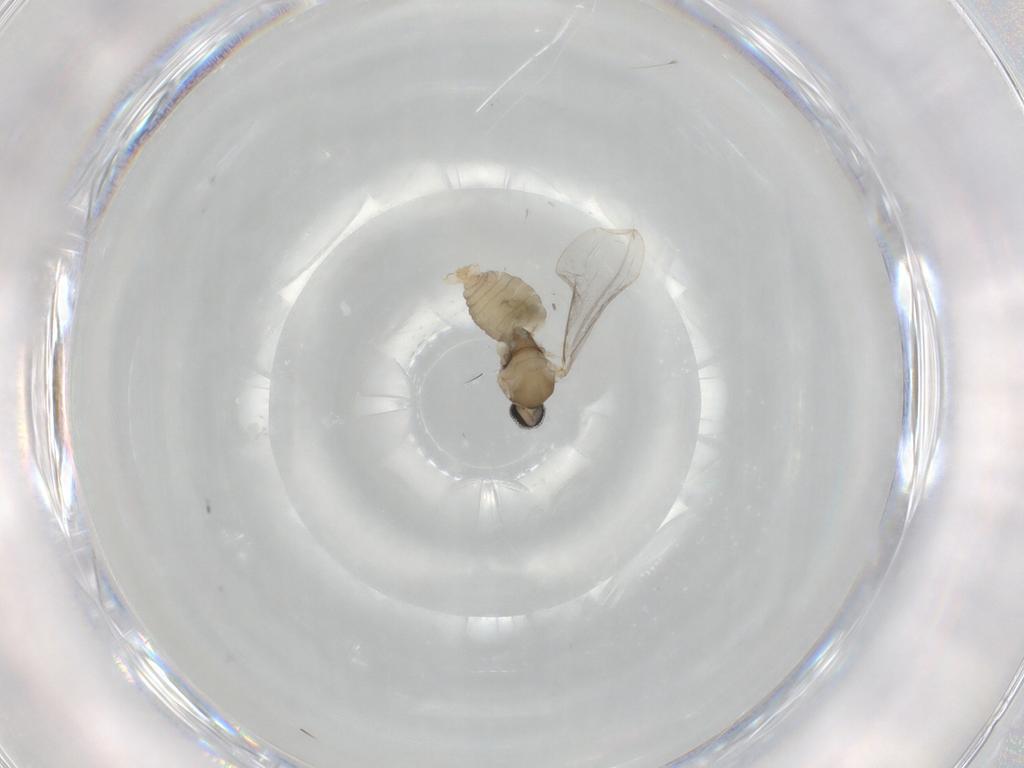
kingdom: Animalia
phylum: Arthropoda
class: Insecta
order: Diptera
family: Cecidomyiidae
